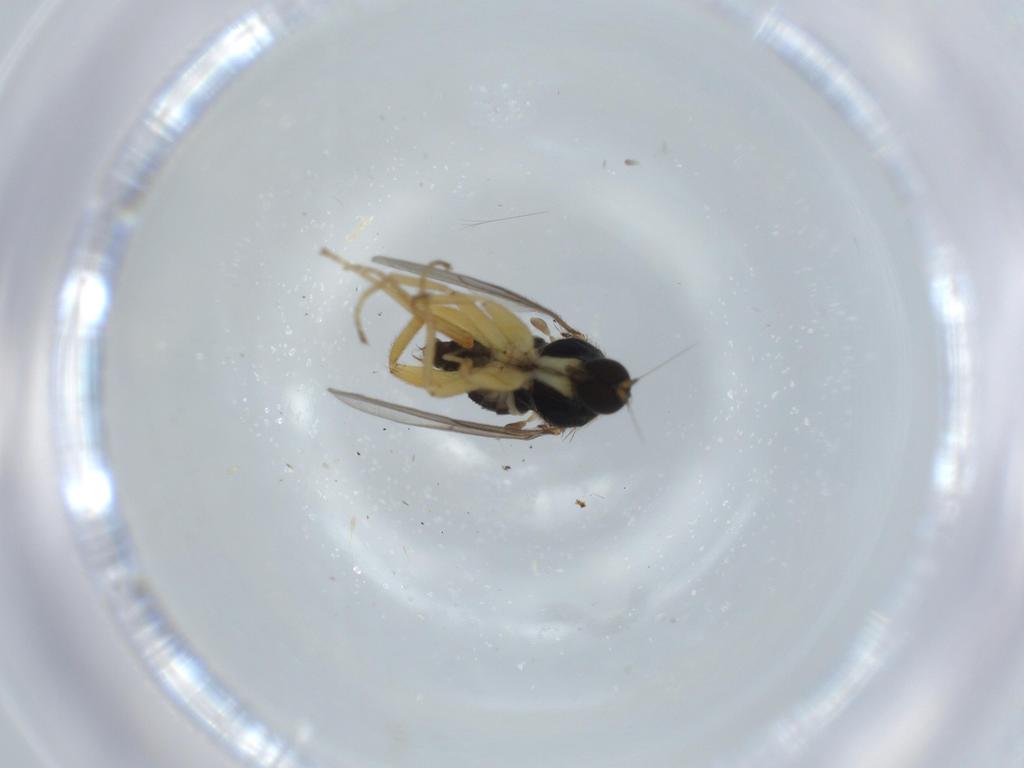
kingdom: Animalia
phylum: Arthropoda
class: Insecta
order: Diptera
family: Hybotidae
